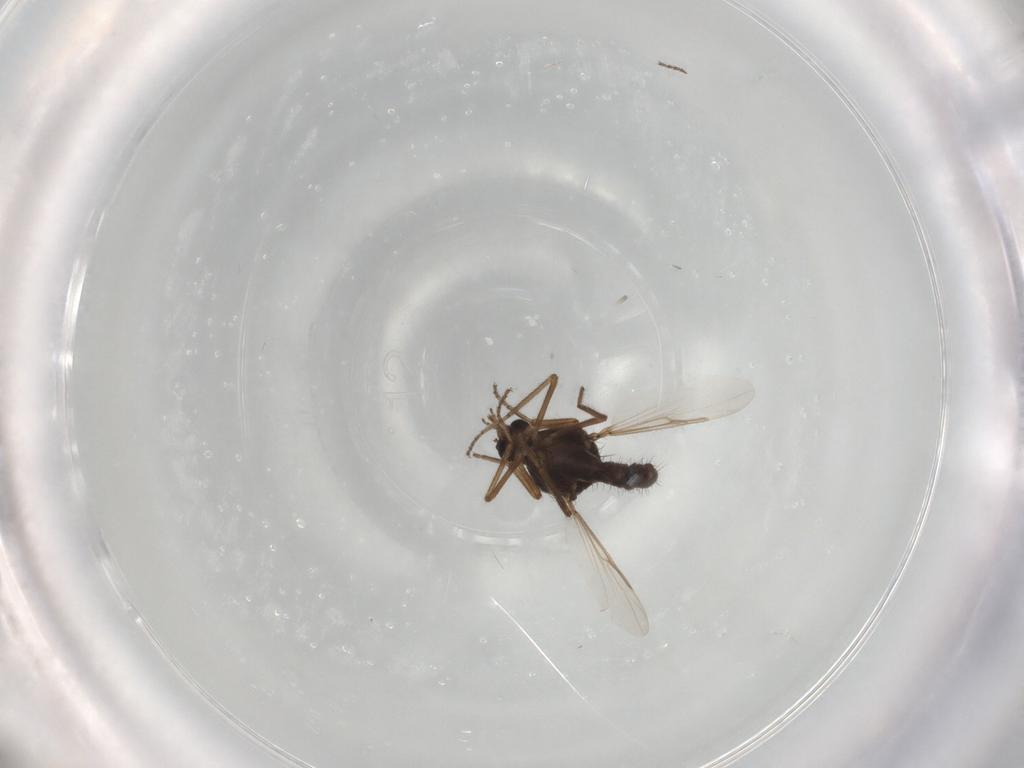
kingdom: Animalia
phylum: Arthropoda
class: Insecta
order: Diptera
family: Ceratopogonidae
